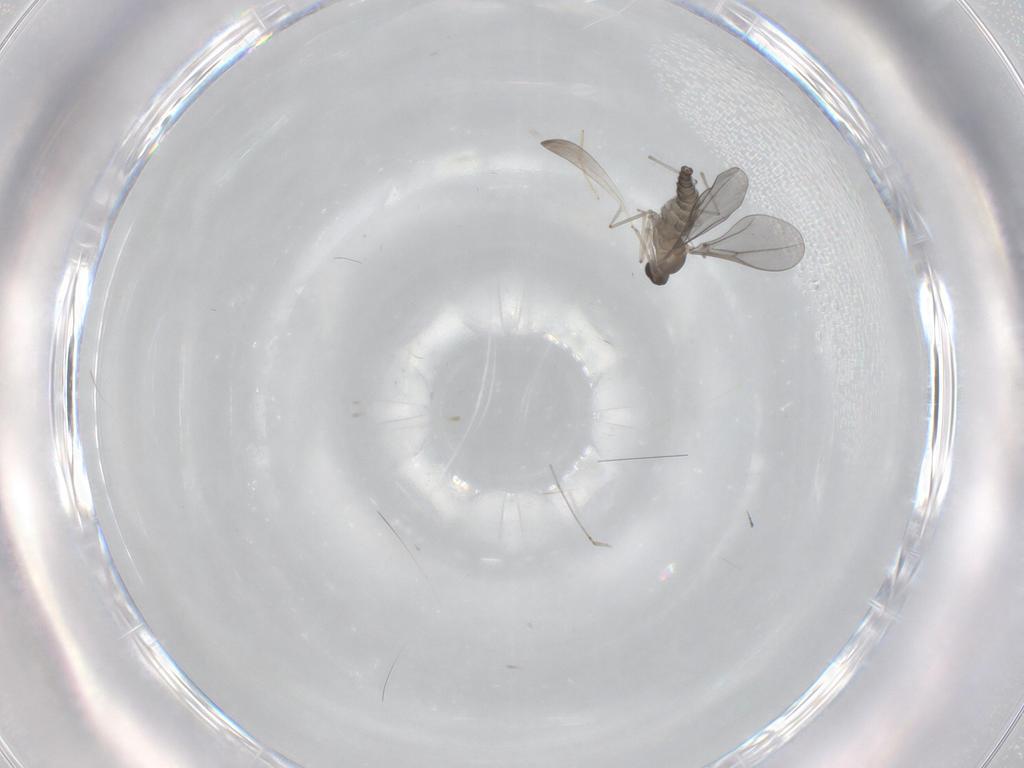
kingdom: Animalia
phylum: Arthropoda
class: Insecta
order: Diptera
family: Cecidomyiidae
